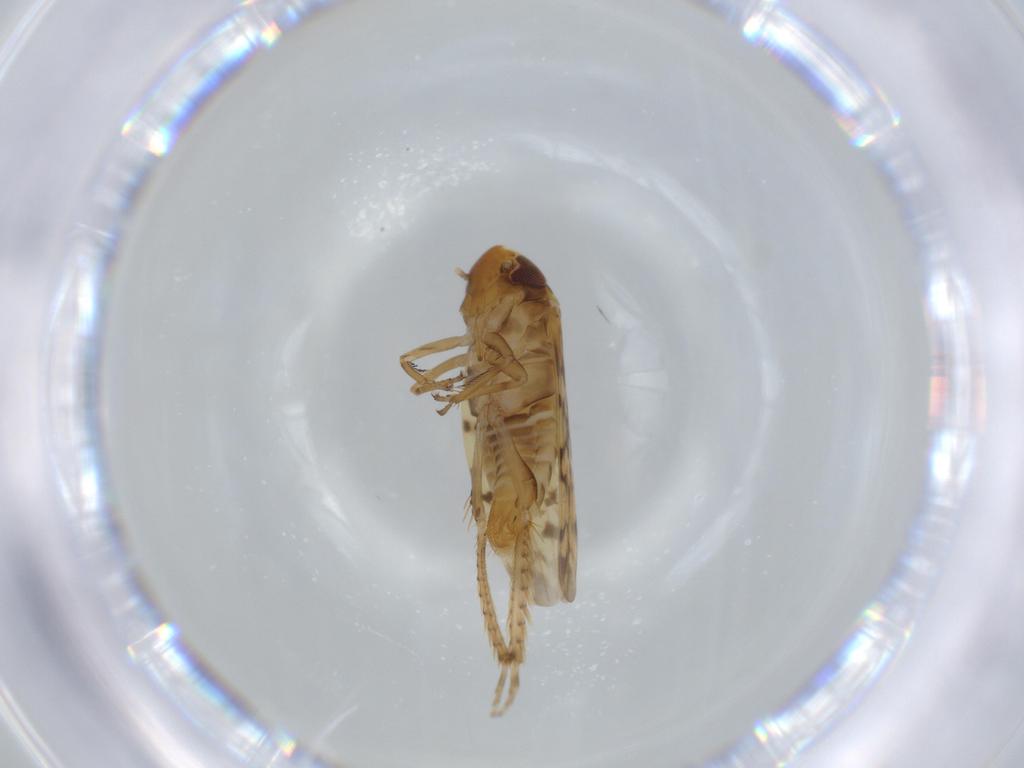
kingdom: Animalia
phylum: Arthropoda
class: Insecta
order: Hemiptera
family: Cicadellidae
